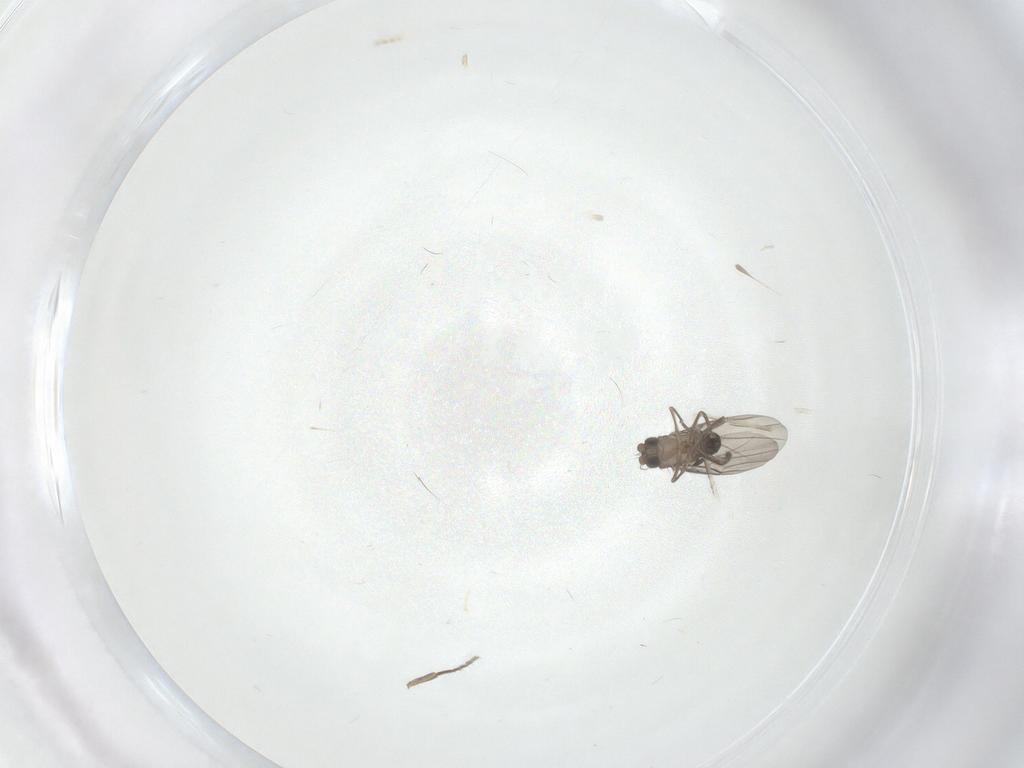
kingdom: Animalia
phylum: Arthropoda
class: Insecta
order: Diptera
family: Phoridae
